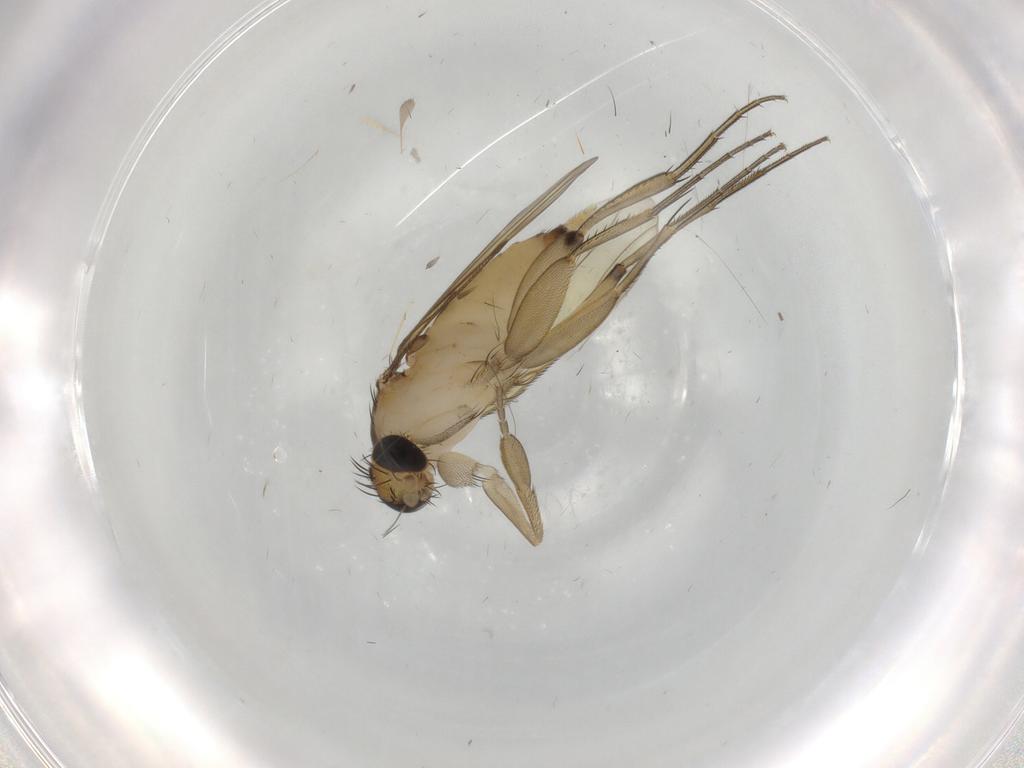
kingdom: Animalia
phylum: Arthropoda
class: Insecta
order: Diptera
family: Phoridae
